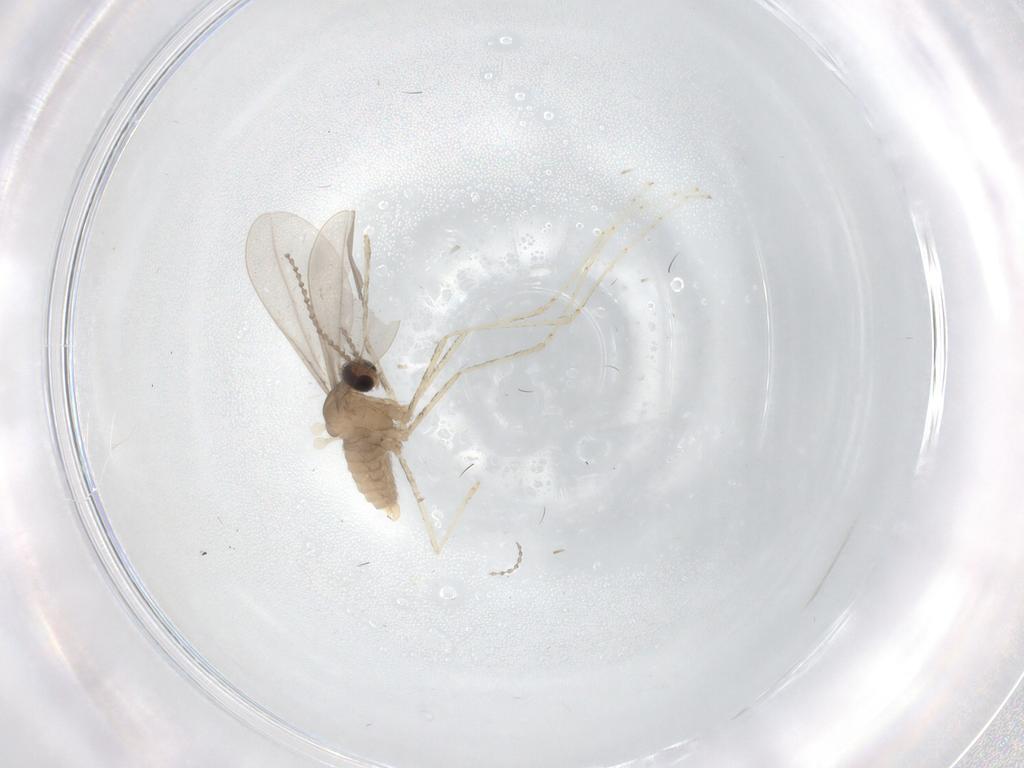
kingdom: Animalia
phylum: Arthropoda
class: Insecta
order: Diptera
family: Cecidomyiidae
